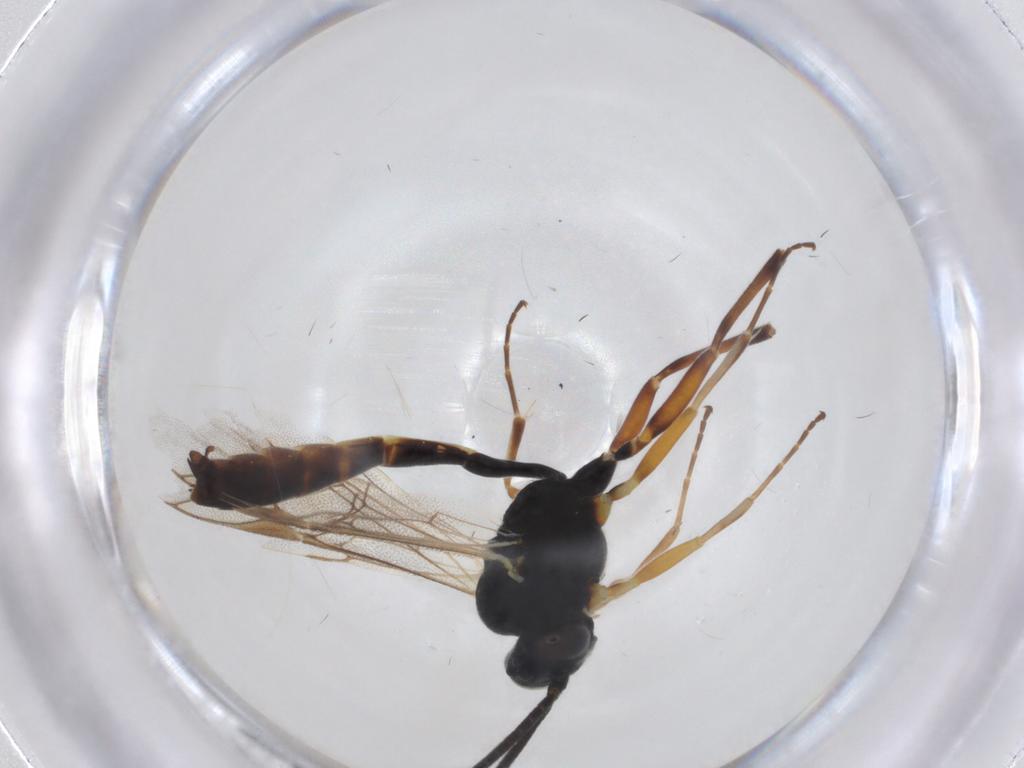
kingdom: Animalia
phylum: Arthropoda
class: Insecta
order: Hymenoptera
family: Ichneumonidae
